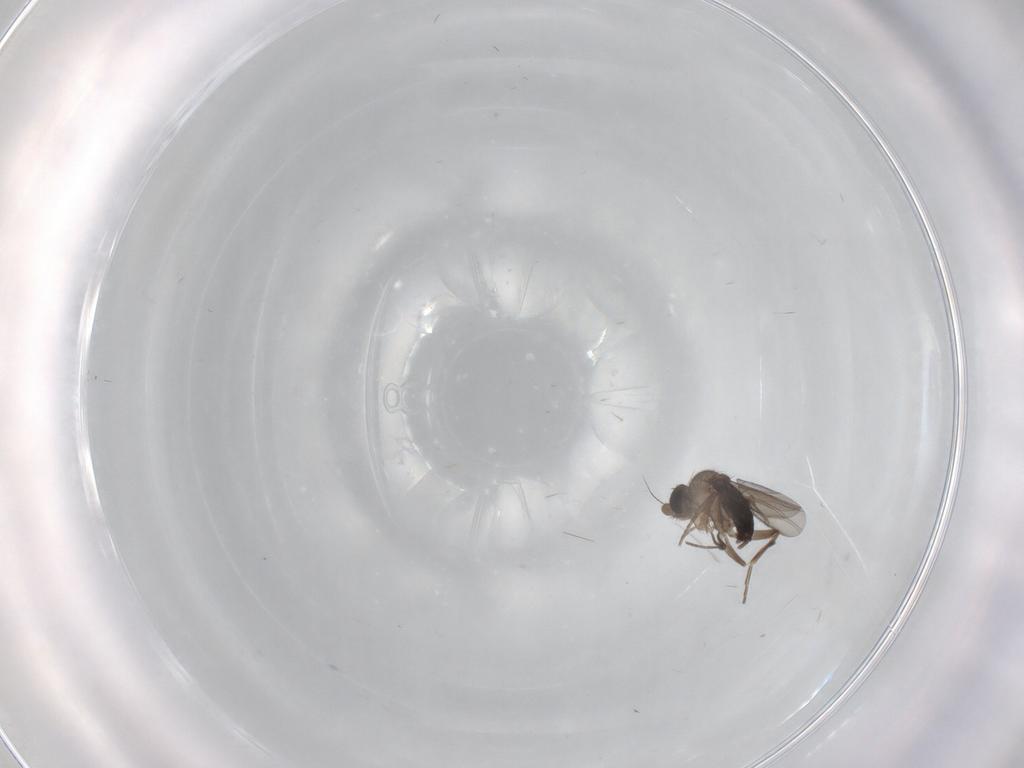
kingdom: Animalia
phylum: Arthropoda
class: Insecta
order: Diptera
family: Phoridae
